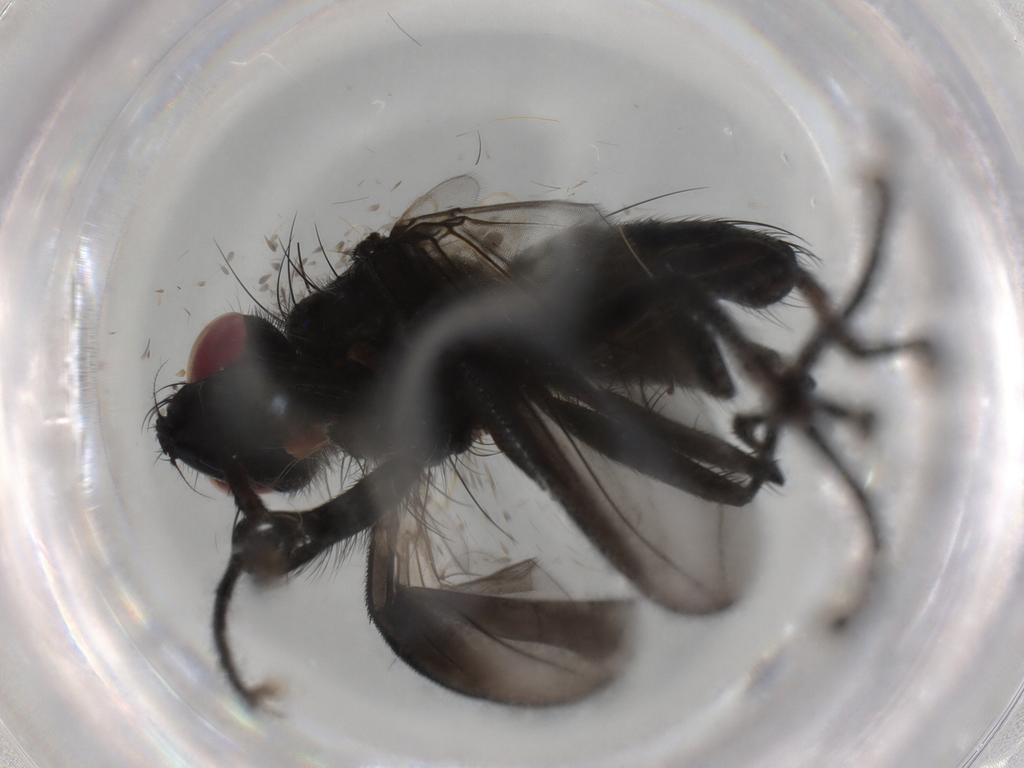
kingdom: Animalia
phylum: Arthropoda
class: Insecta
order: Diptera
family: Tachinidae
